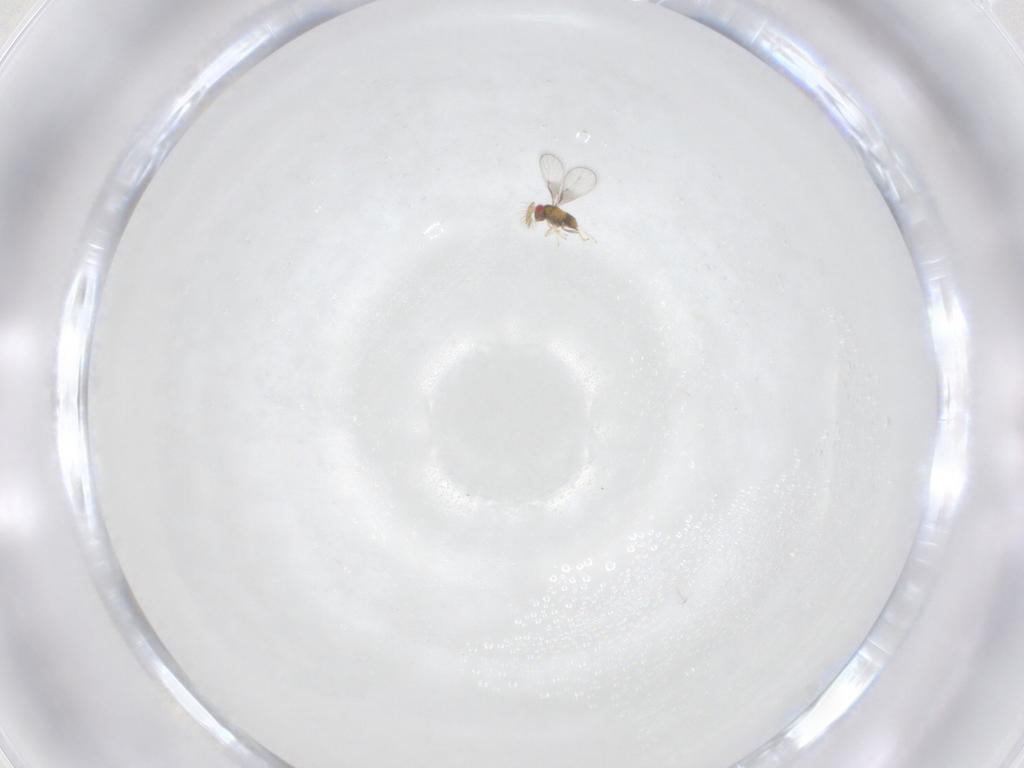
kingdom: Animalia
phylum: Arthropoda
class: Insecta
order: Hymenoptera
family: Trichogrammatidae
